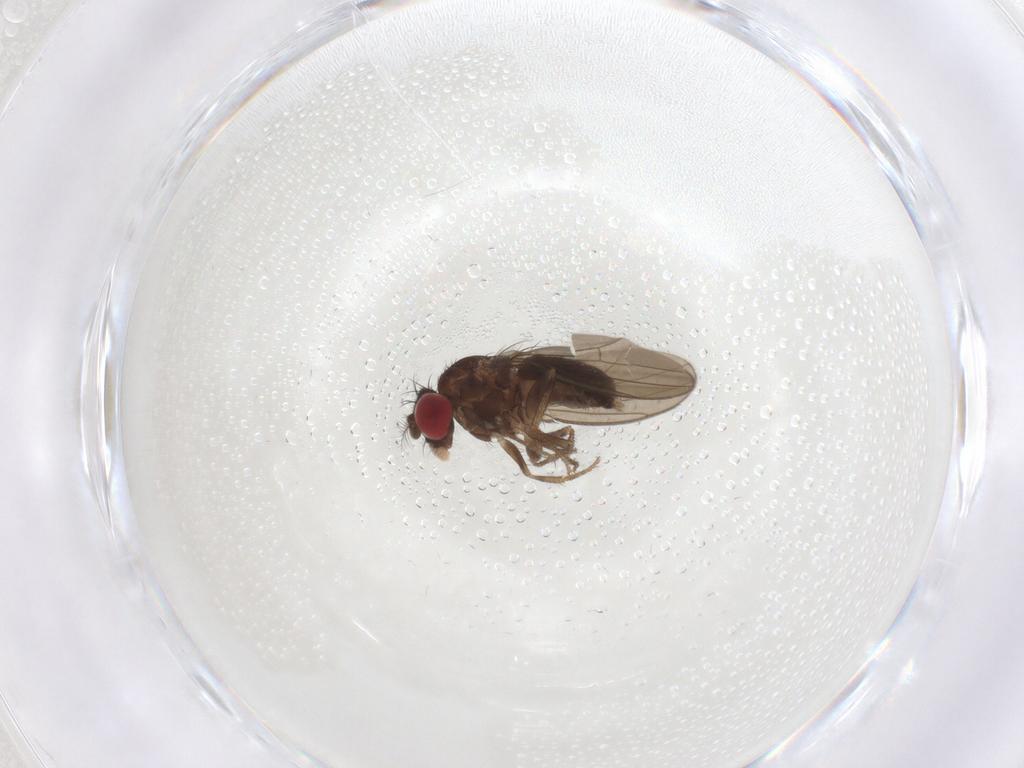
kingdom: Animalia
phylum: Arthropoda
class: Insecta
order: Diptera
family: Drosophilidae
